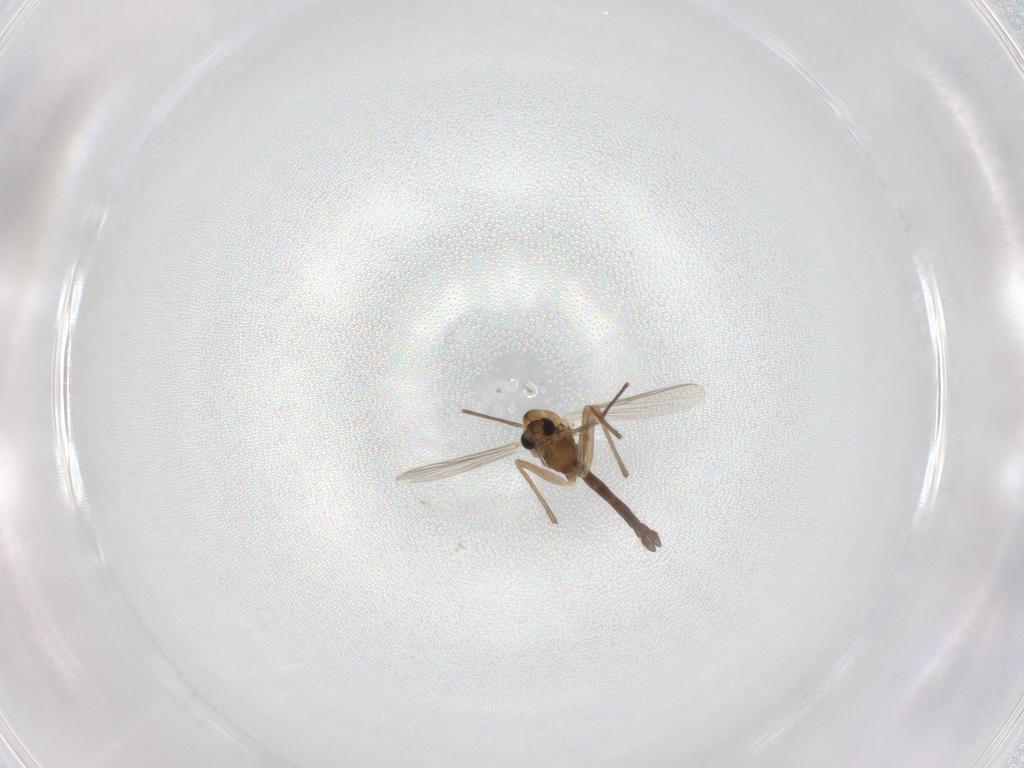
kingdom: Animalia
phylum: Arthropoda
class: Insecta
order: Diptera
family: Chironomidae
